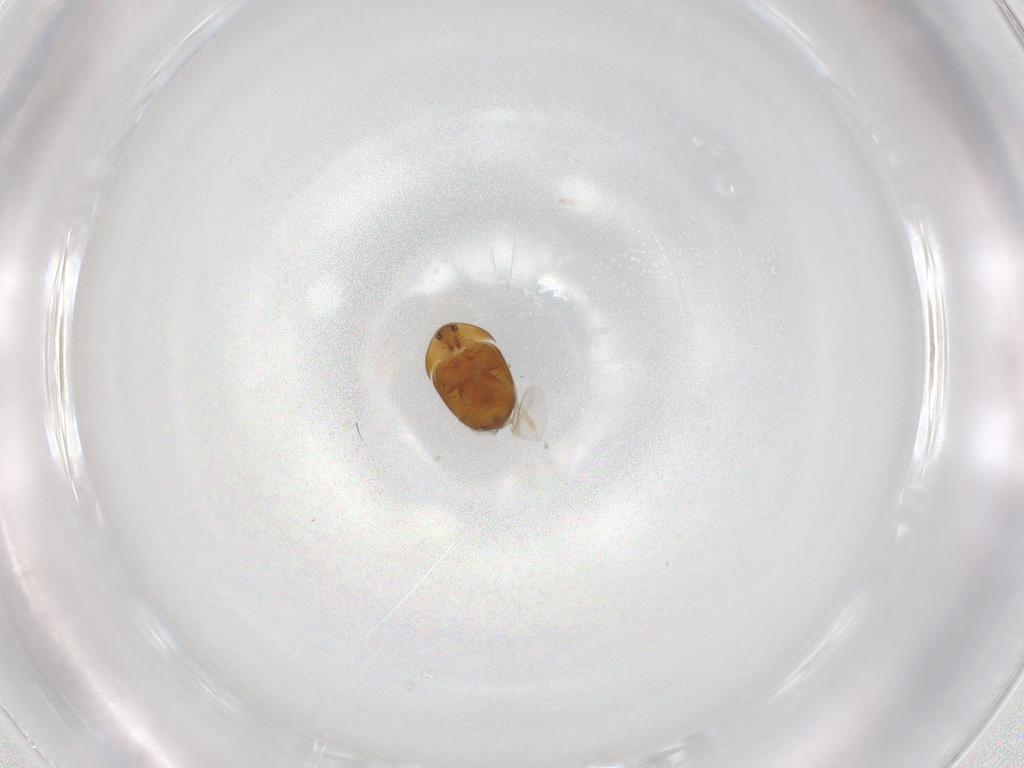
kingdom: Animalia
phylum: Arthropoda
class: Insecta
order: Coleoptera
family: Corylophidae
